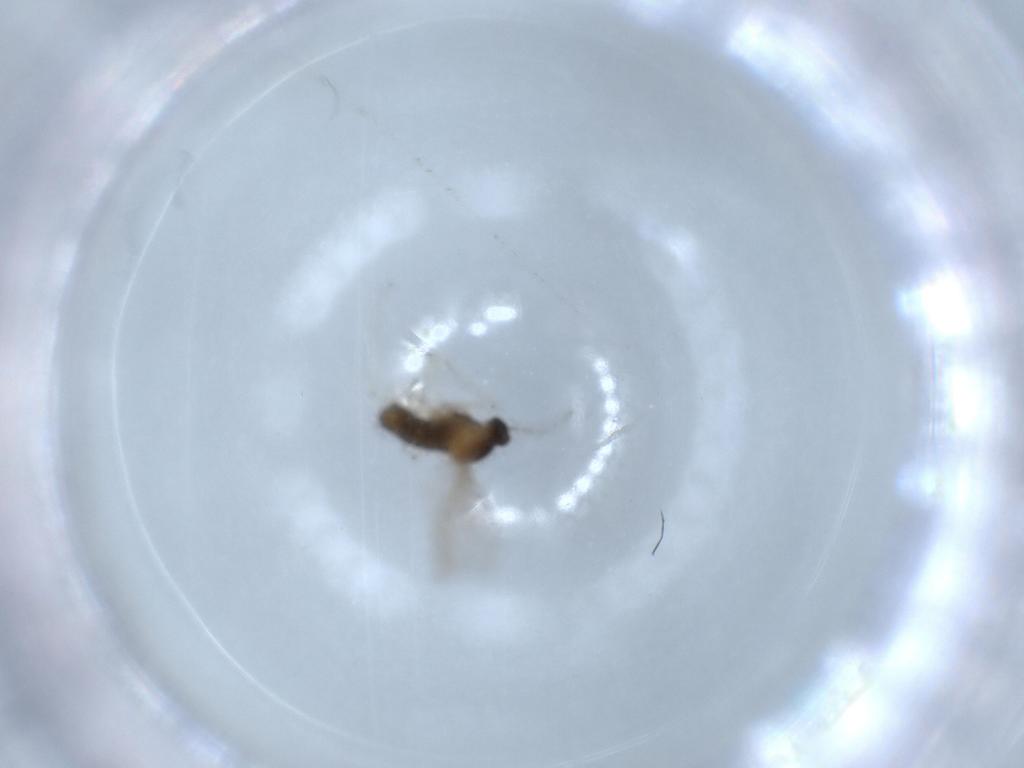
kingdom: Animalia
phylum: Arthropoda
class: Insecta
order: Diptera
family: Cecidomyiidae
